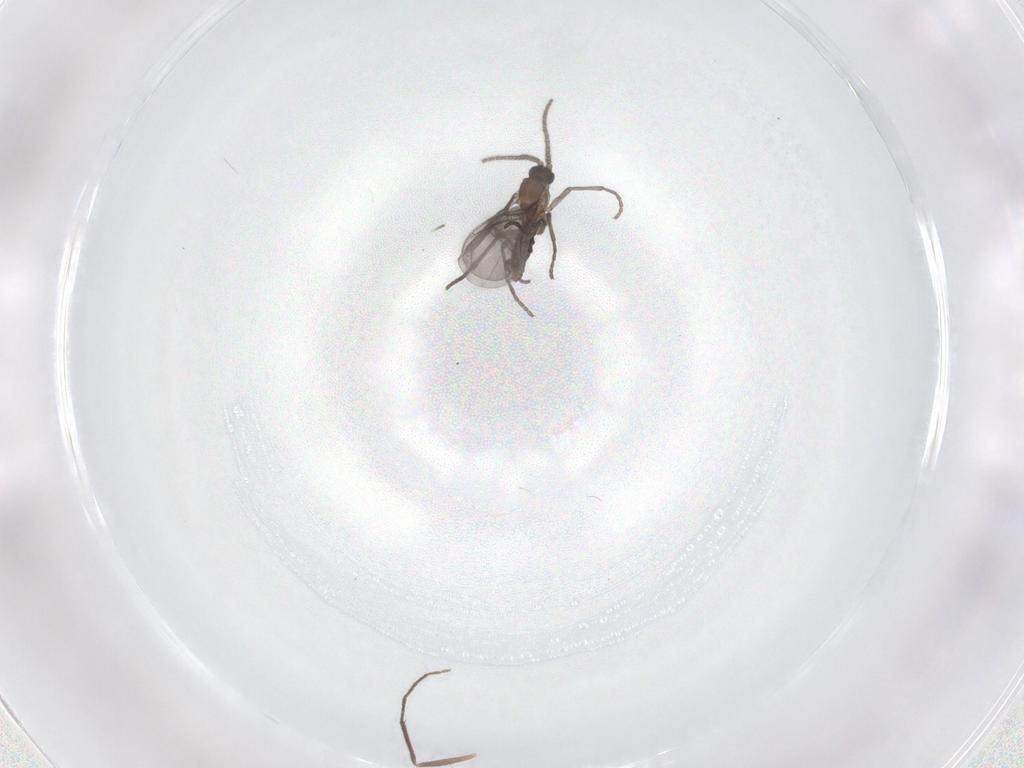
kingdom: Animalia
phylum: Arthropoda
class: Insecta
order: Diptera
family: Sciaridae
